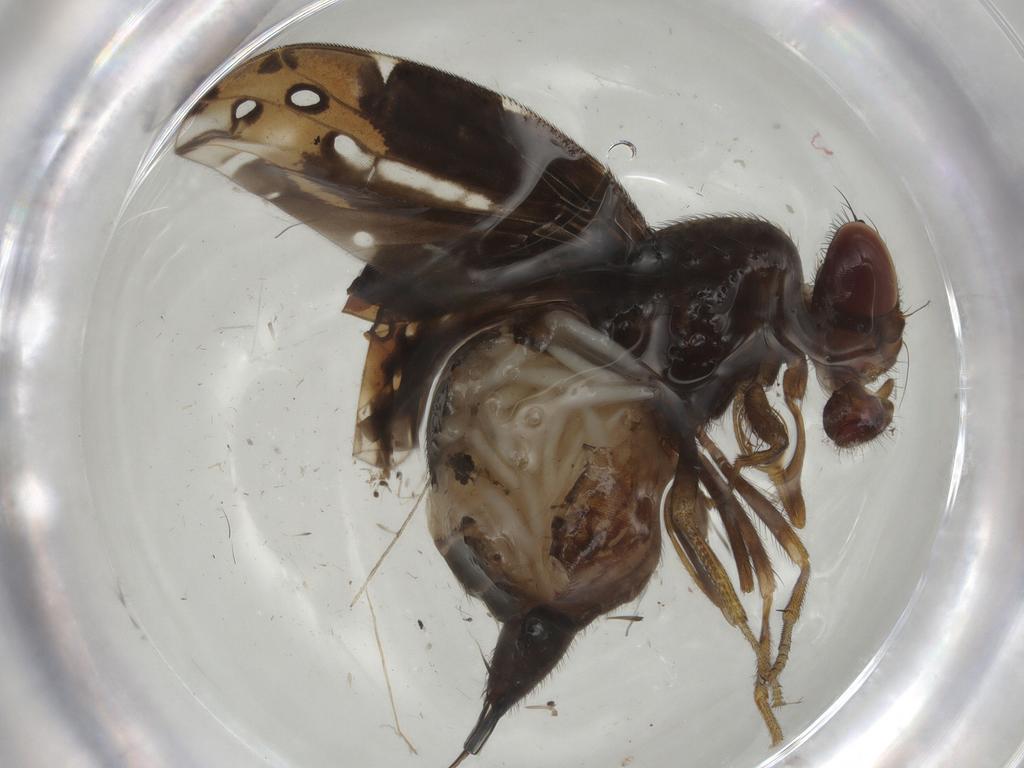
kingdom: Animalia
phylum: Arthropoda
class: Insecta
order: Diptera
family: Ulidiidae
